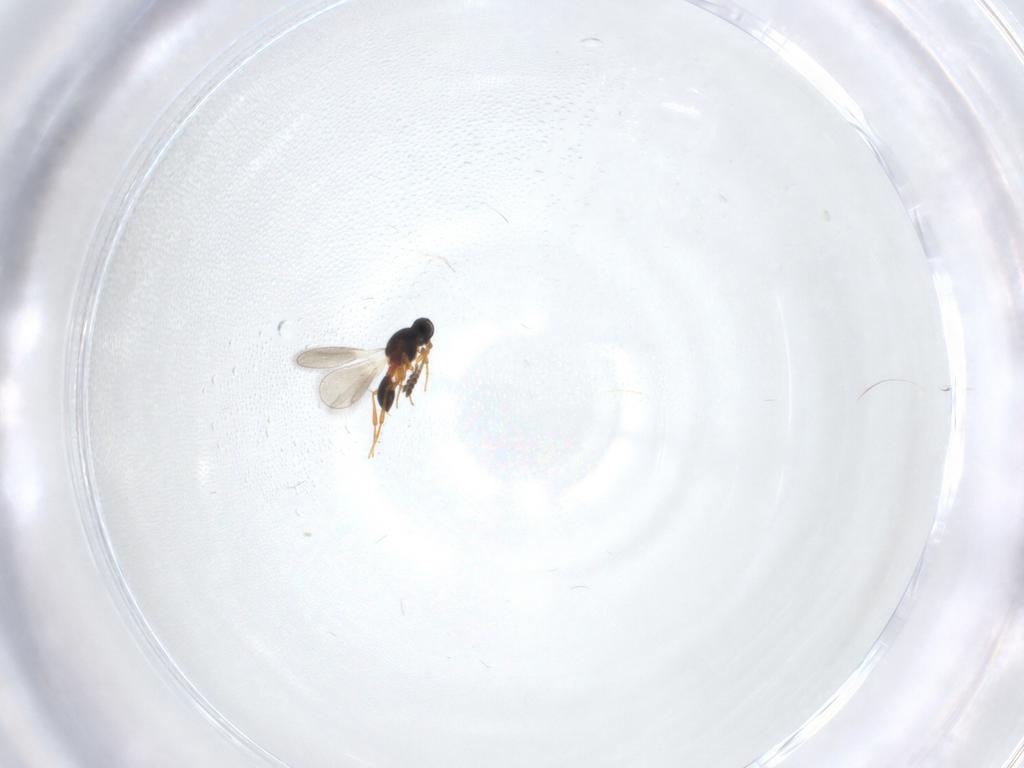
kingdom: Animalia
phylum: Arthropoda
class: Insecta
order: Hymenoptera
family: Platygastridae
